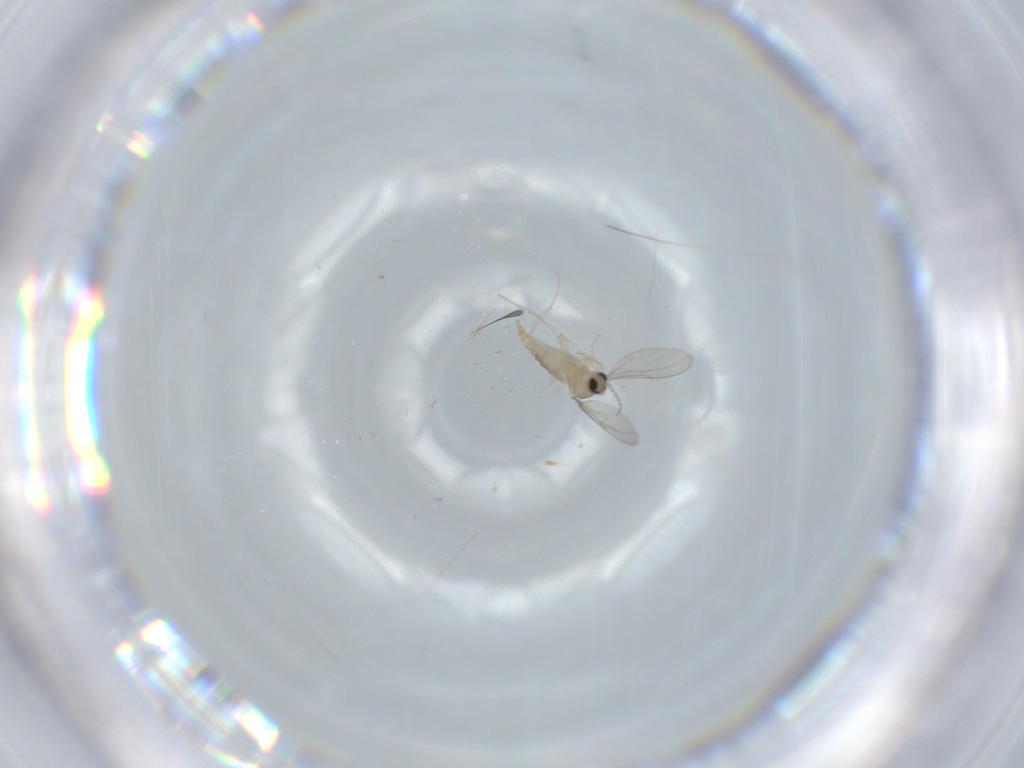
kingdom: Animalia
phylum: Arthropoda
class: Insecta
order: Diptera
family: Cecidomyiidae
